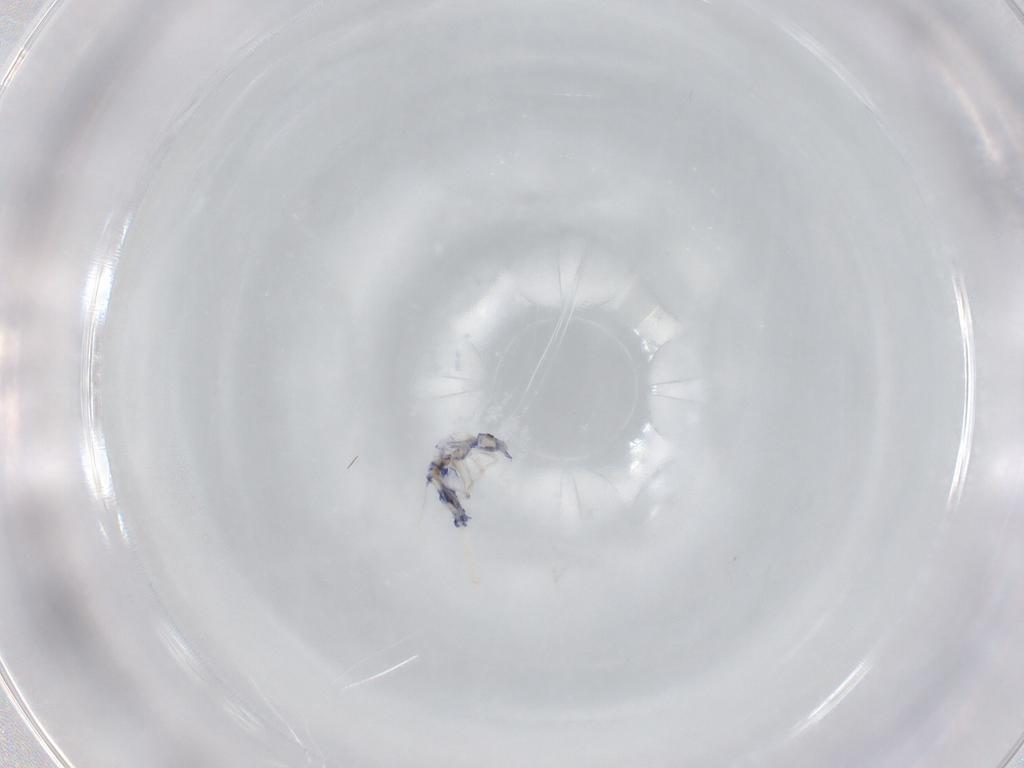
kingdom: Animalia
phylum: Arthropoda
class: Collembola
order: Entomobryomorpha
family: Entomobryidae
